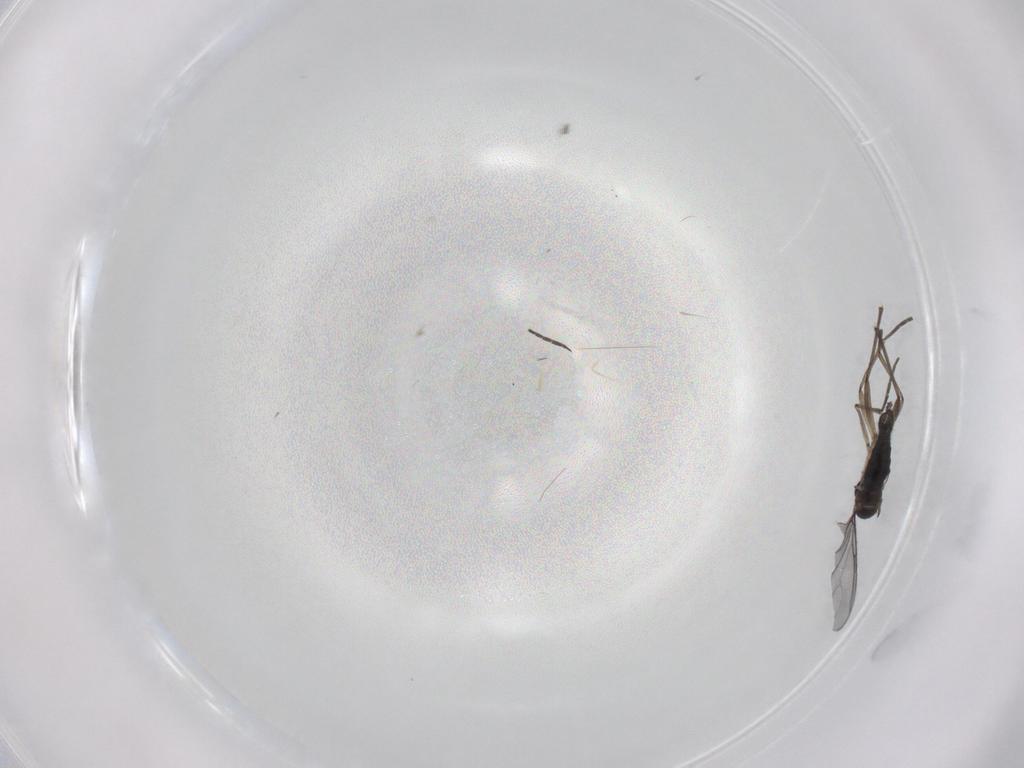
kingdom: Animalia
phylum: Arthropoda
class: Insecta
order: Diptera
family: Sciaridae
